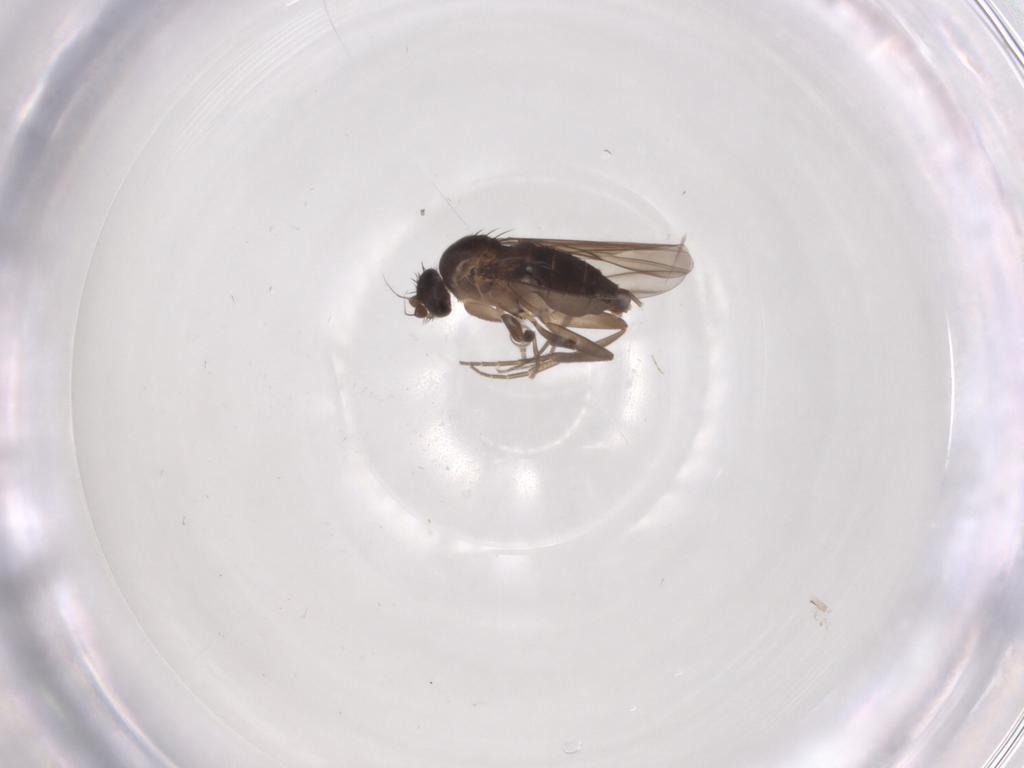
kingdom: Animalia
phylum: Arthropoda
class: Insecta
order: Diptera
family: Phoridae
